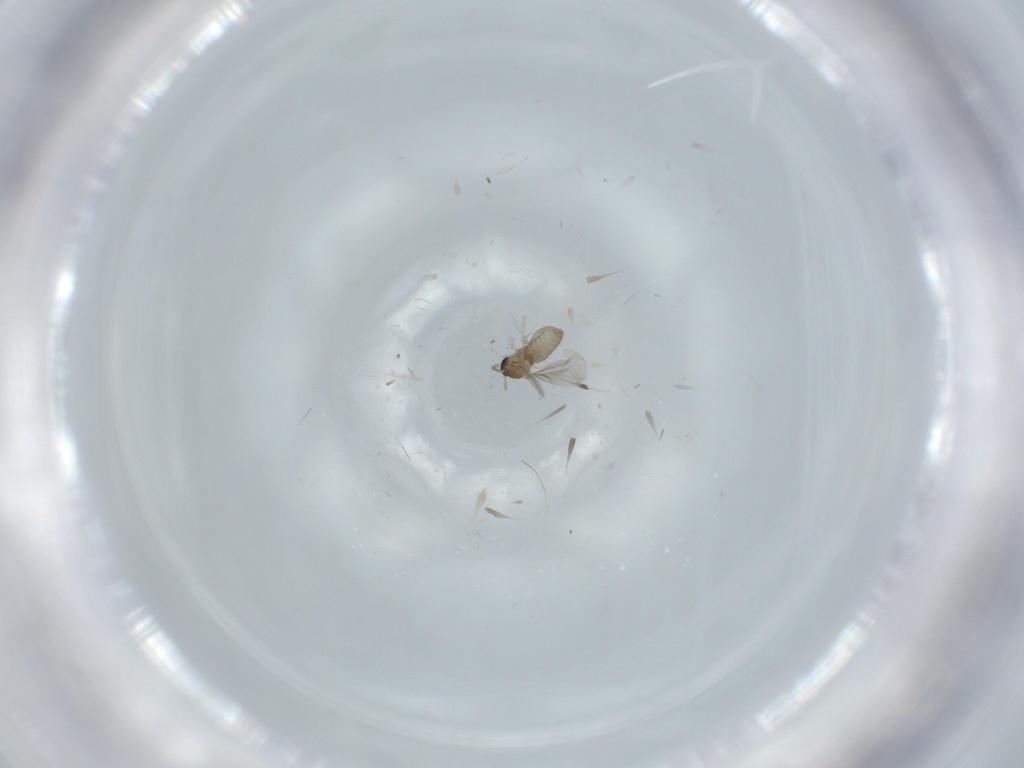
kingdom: Animalia
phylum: Arthropoda
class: Insecta
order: Diptera
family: Cecidomyiidae
